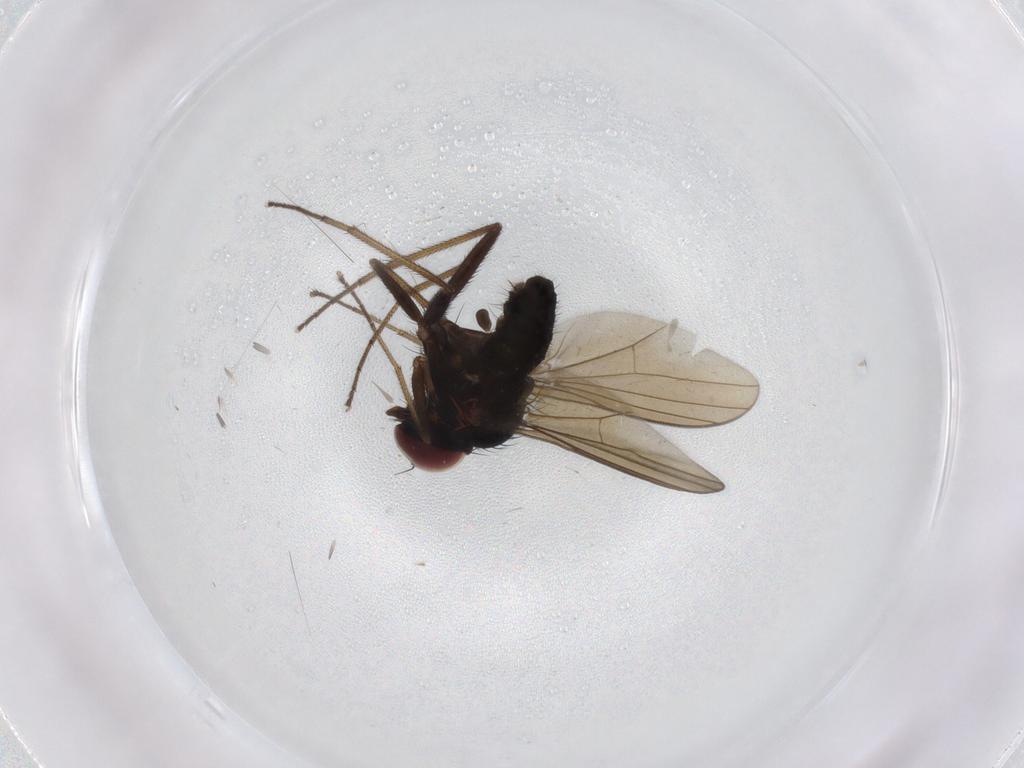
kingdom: Animalia
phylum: Arthropoda
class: Insecta
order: Diptera
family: Dolichopodidae
